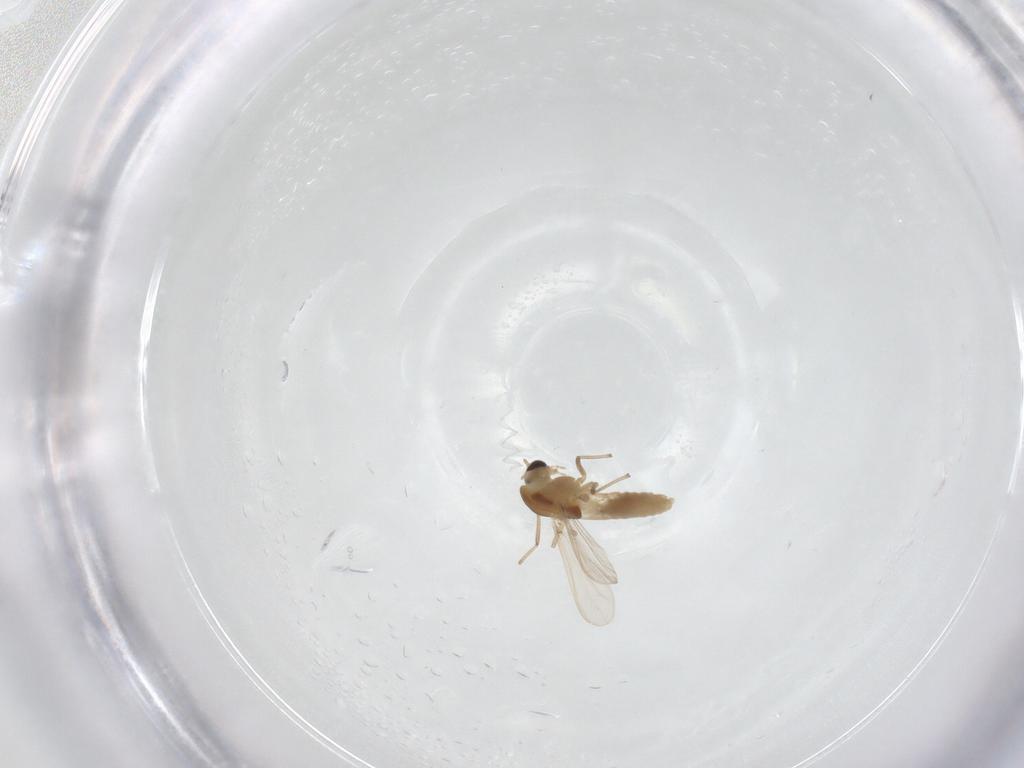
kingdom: Animalia
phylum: Arthropoda
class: Insecta
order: Diptera
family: Chironomidae
